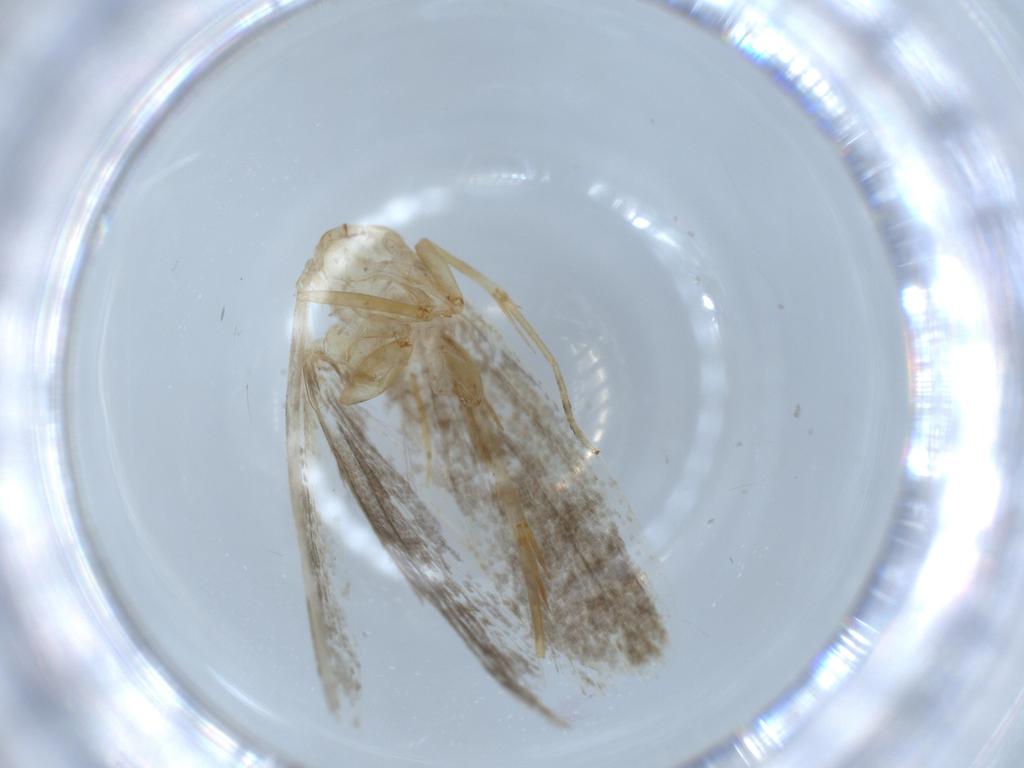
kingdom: Animalia
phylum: Arthropoda
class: Insecta
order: Lepidoptera
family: Tineidae
